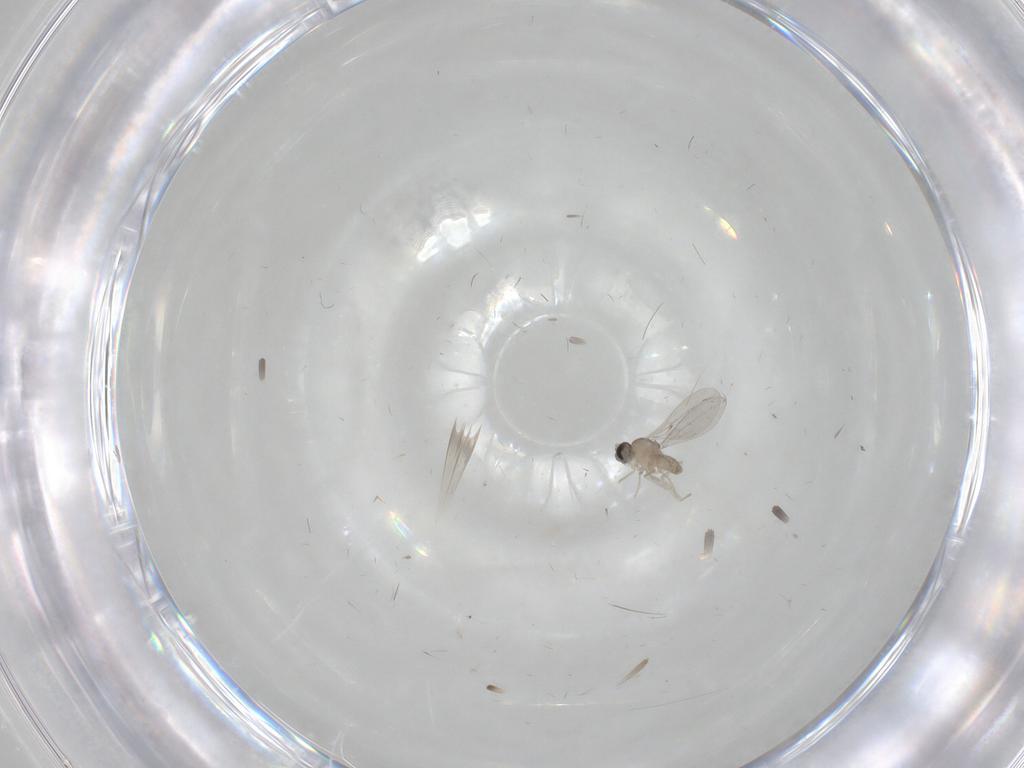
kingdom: Animalia
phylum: Arthropoda
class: Insecta
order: Diptera
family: Cecidomyiidae
